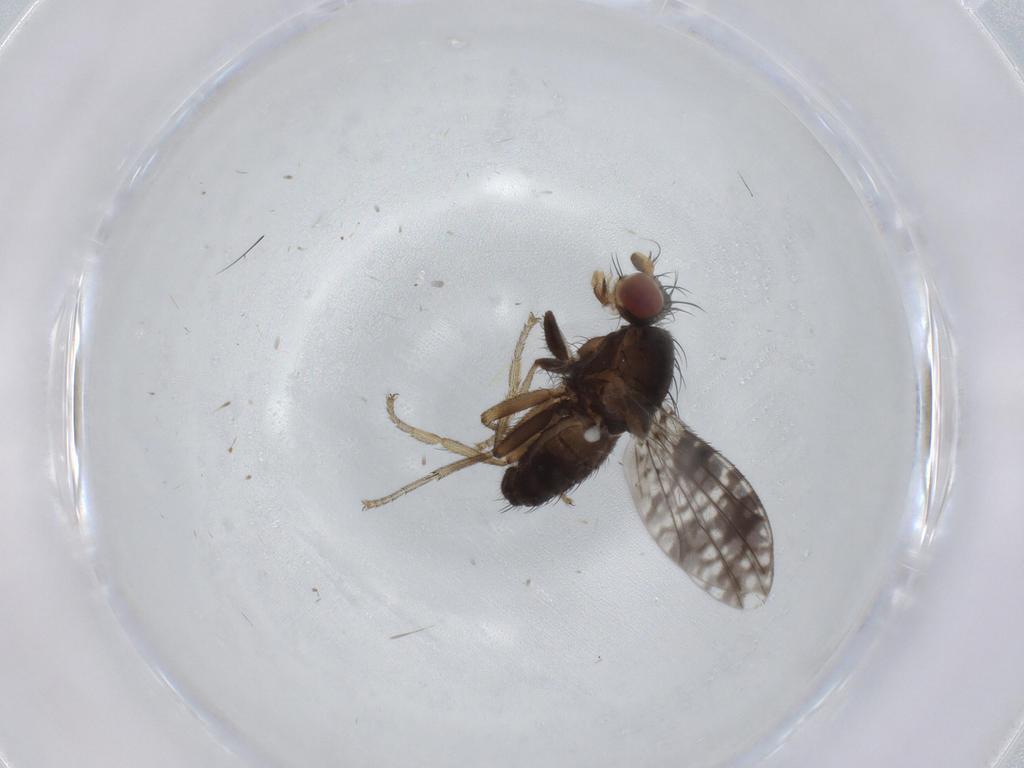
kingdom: Animalia
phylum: Arthropoda
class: Insecta
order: Diptera
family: Tephritidae
